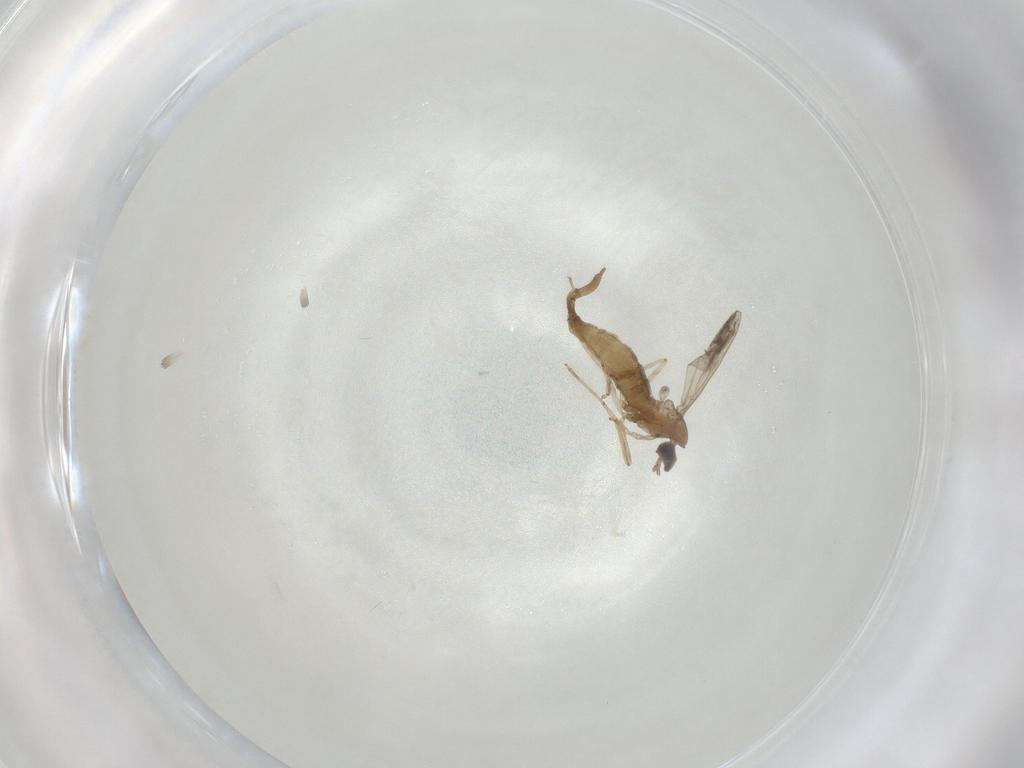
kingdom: Animalia
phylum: Arthropoda
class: Insecta
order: Diptera
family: Cecidomyiidae
